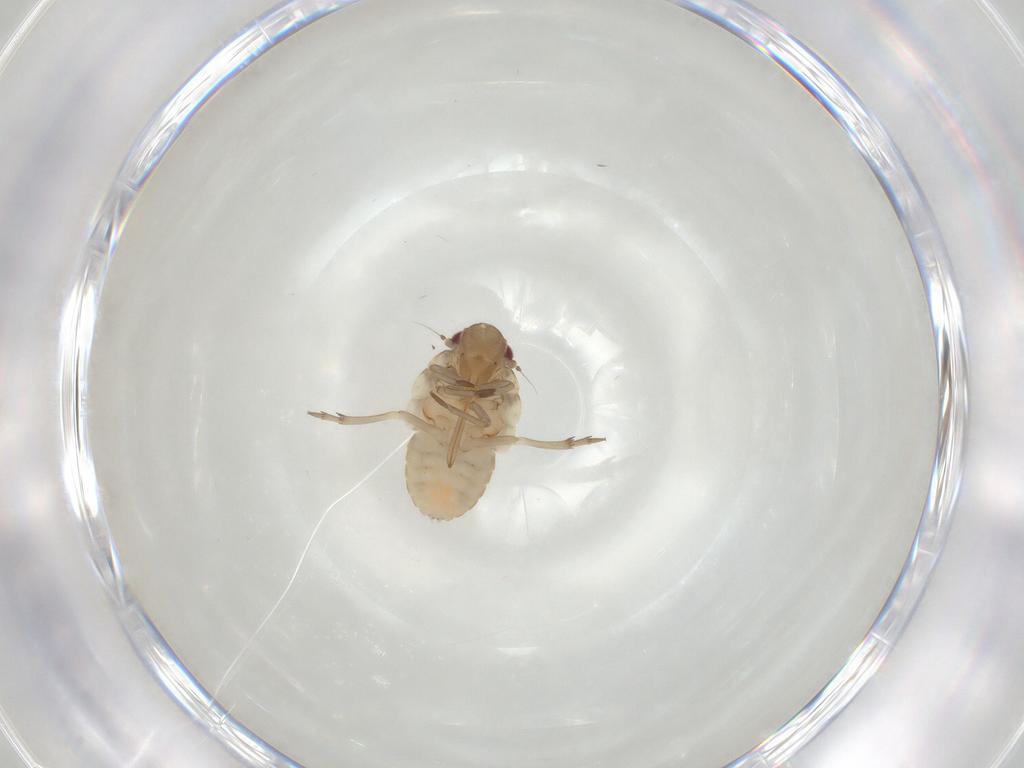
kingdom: Animalia
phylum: Arthropoda
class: Insecta
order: Hemiptera
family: Flatidae
